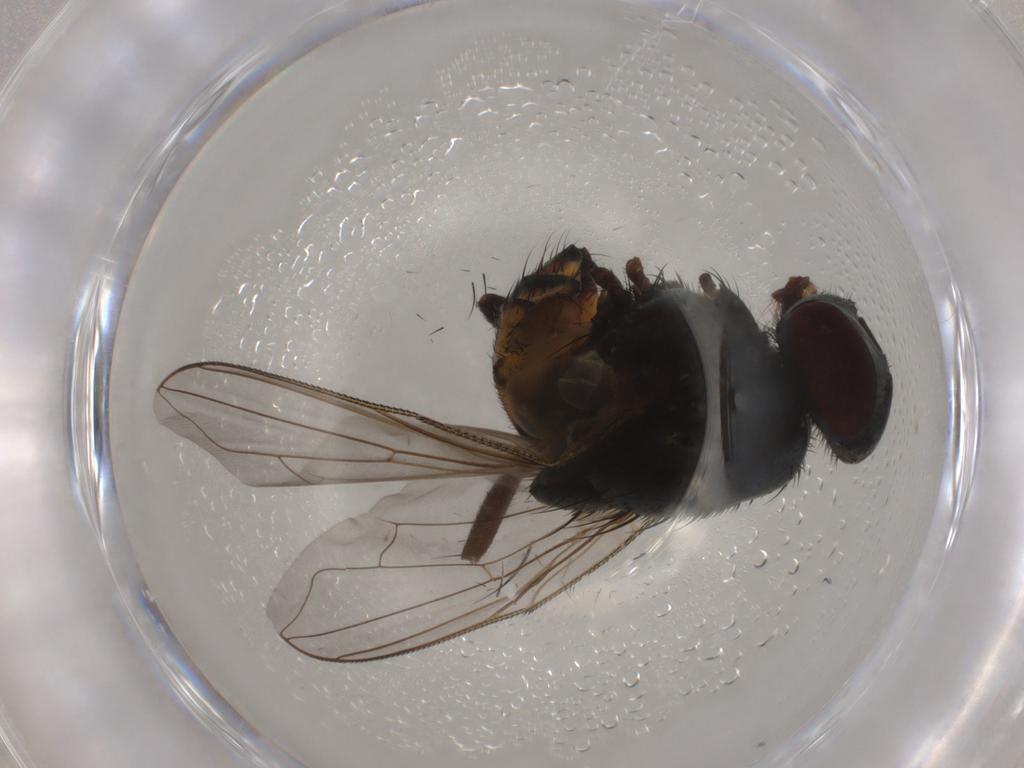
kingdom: Animalia
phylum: Arthropoda
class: Insecta
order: Diptera
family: Muscidae
